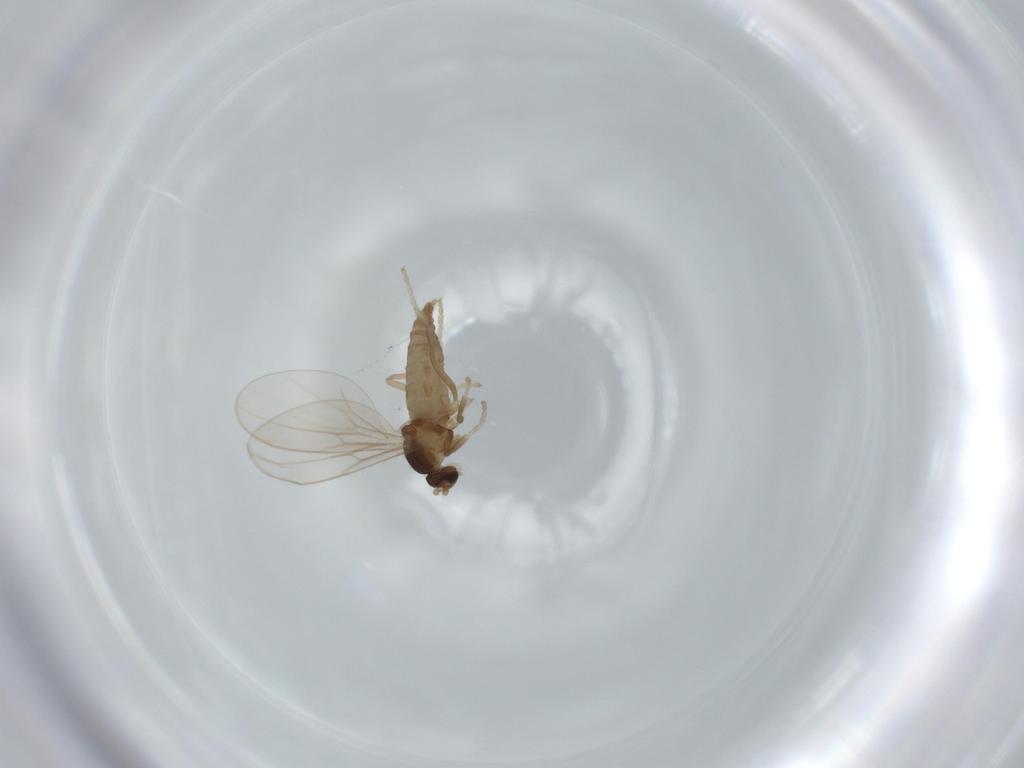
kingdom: Animalia
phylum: Arthropoda
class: Insecta
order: Diptera
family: Cecidomyiidae
